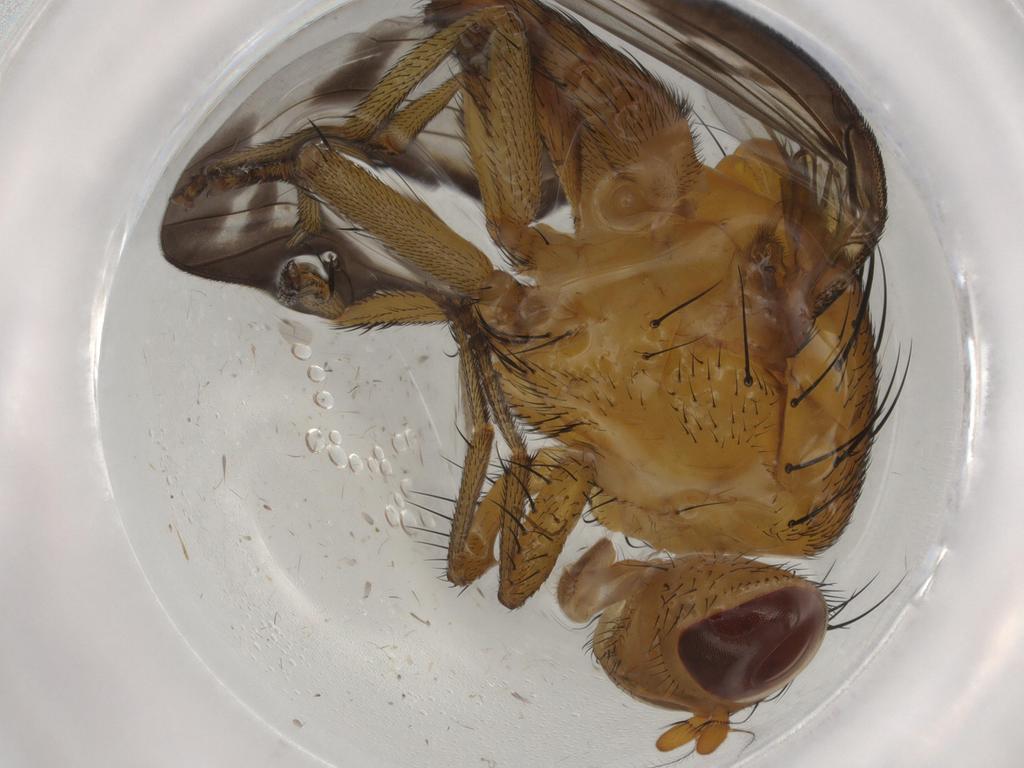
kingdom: Animalia
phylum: Arthropoda
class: Insecta
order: Diptera
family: Lauxaniidae
